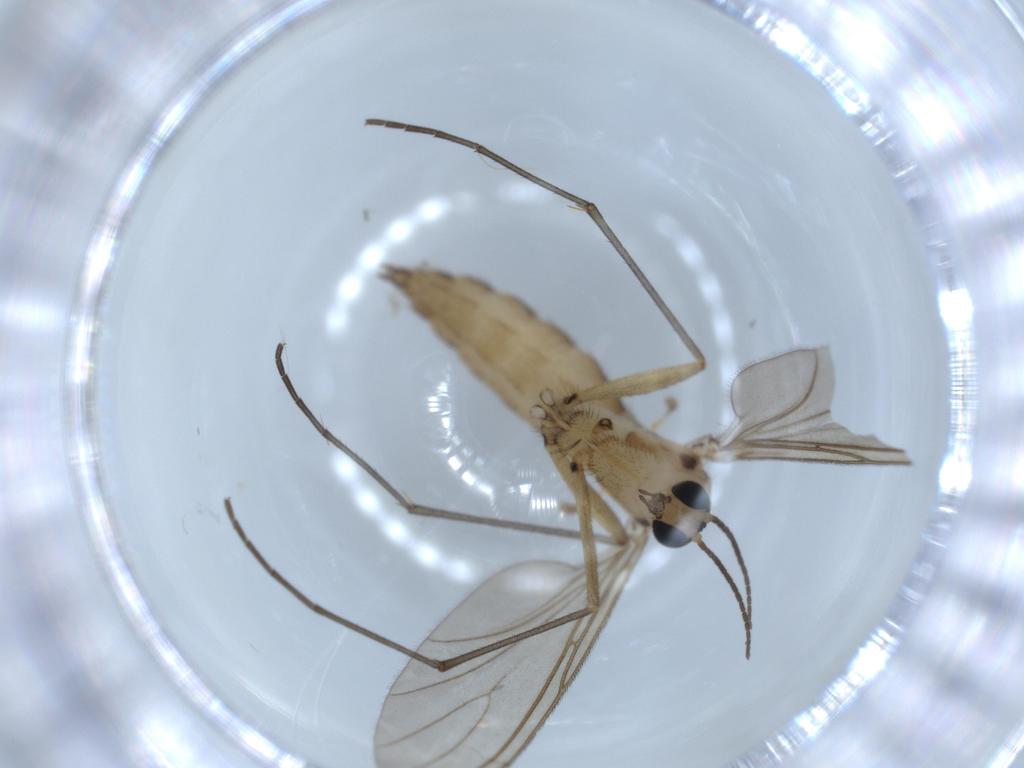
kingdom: Animalia
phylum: Arthropoda
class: Insecta
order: Diptera
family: Sciaridae
